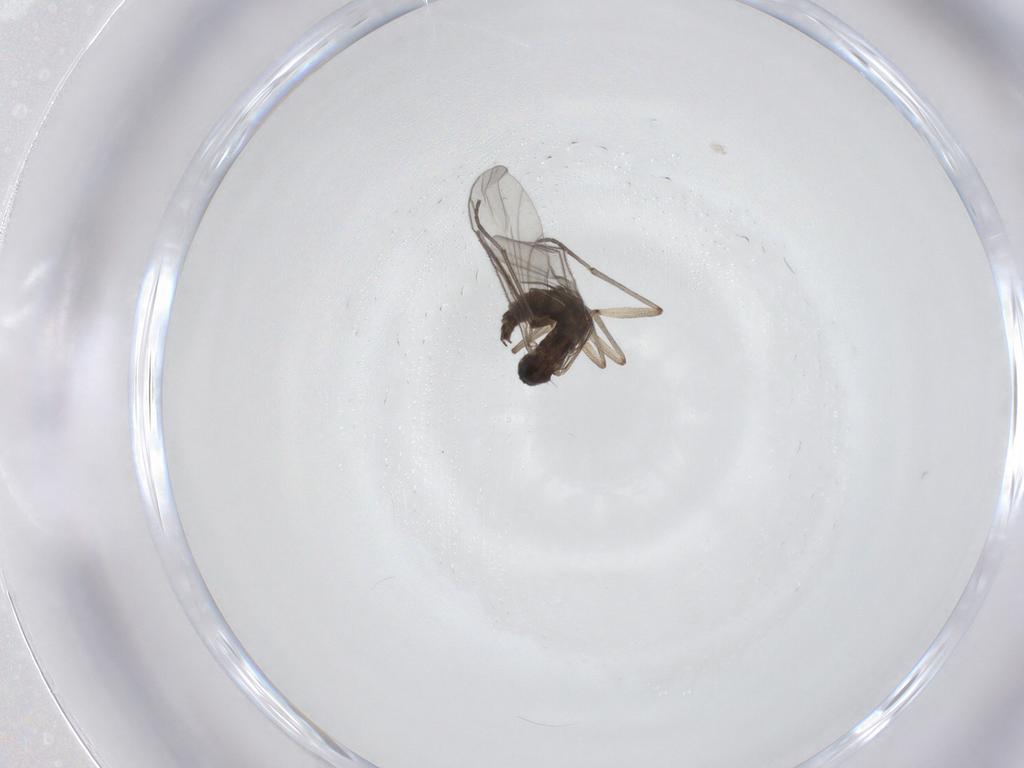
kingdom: Animalia
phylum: Arthropoda
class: Insecta
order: Diptera
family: Sciaridae
